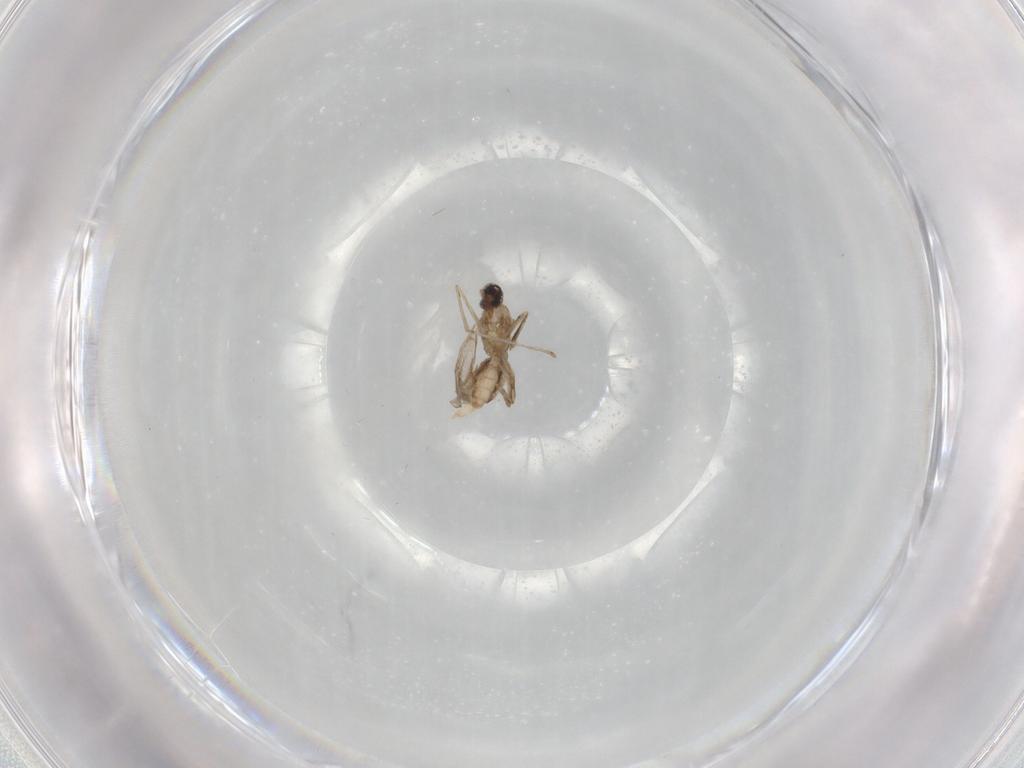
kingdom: Animalia
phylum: Arthropoda
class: Insecta
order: Diptera
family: Cecidomyiidae
